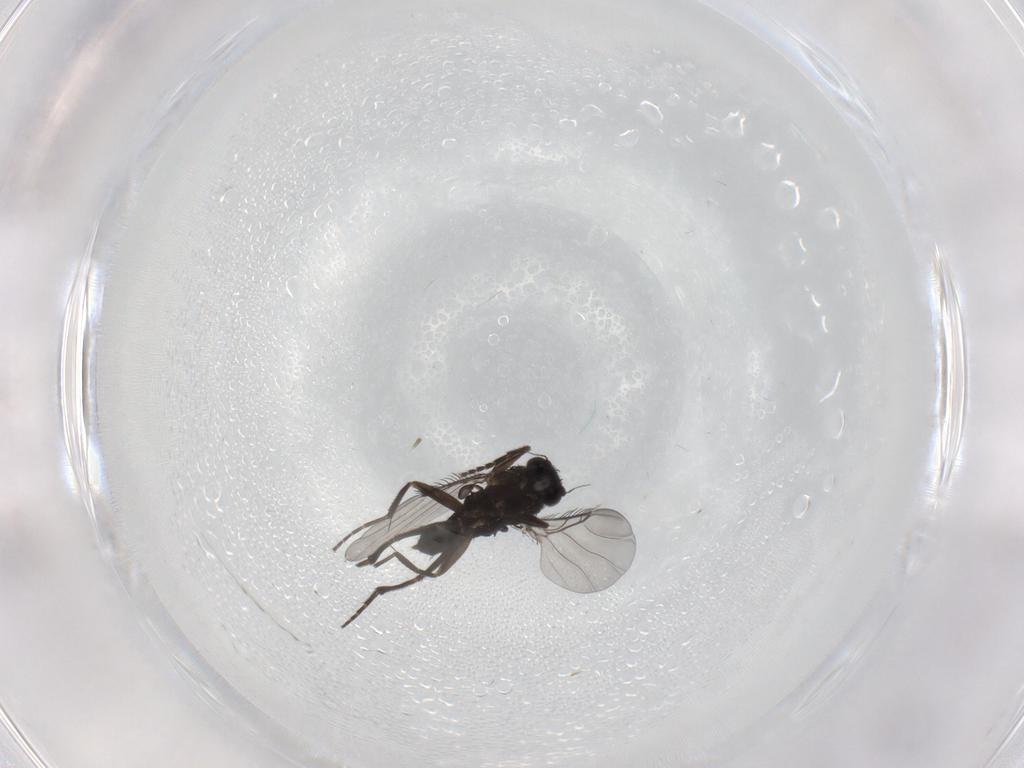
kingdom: Animalia
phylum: Arthropoda
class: Insecta
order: Diptera
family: Phoridae
